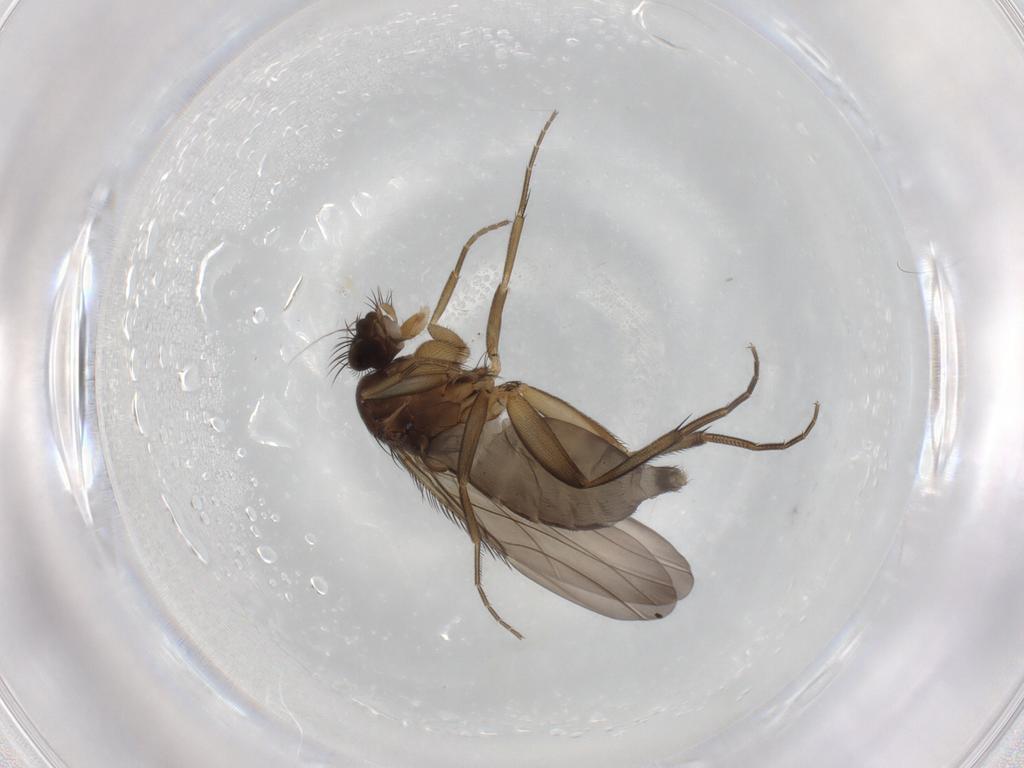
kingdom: Animalia
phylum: Arthropoda
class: Insecta
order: Diptera
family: Phoridae
